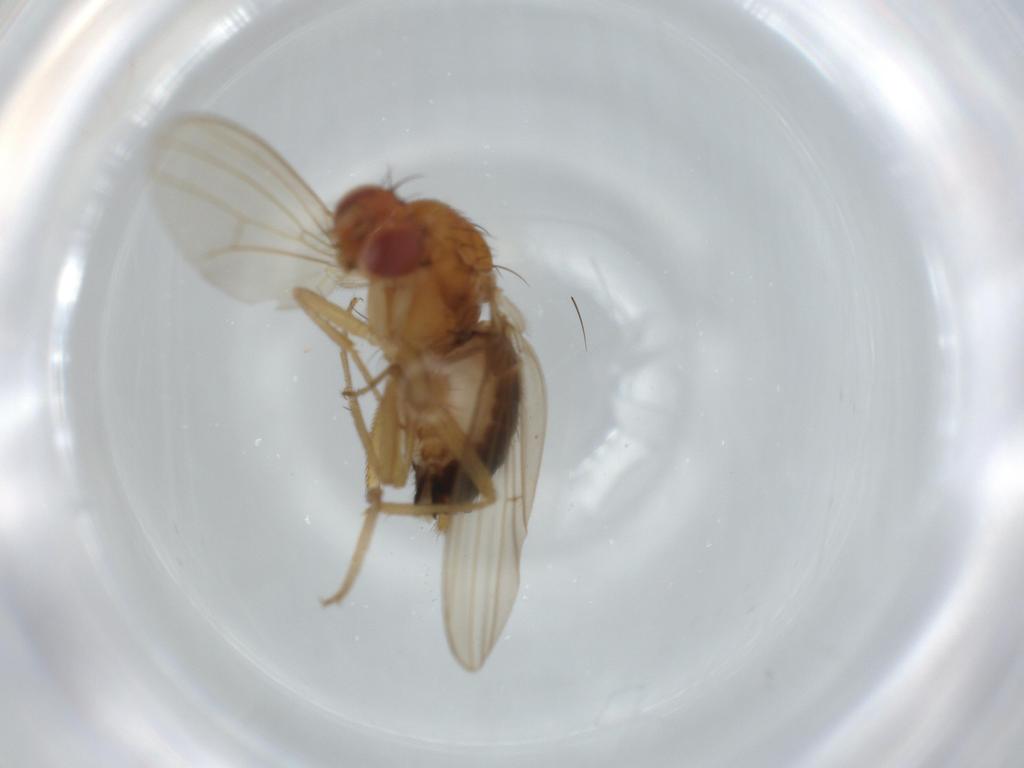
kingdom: Animalia
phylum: Arthropoda
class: Insecta
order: Diptera
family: Drosophilidae
